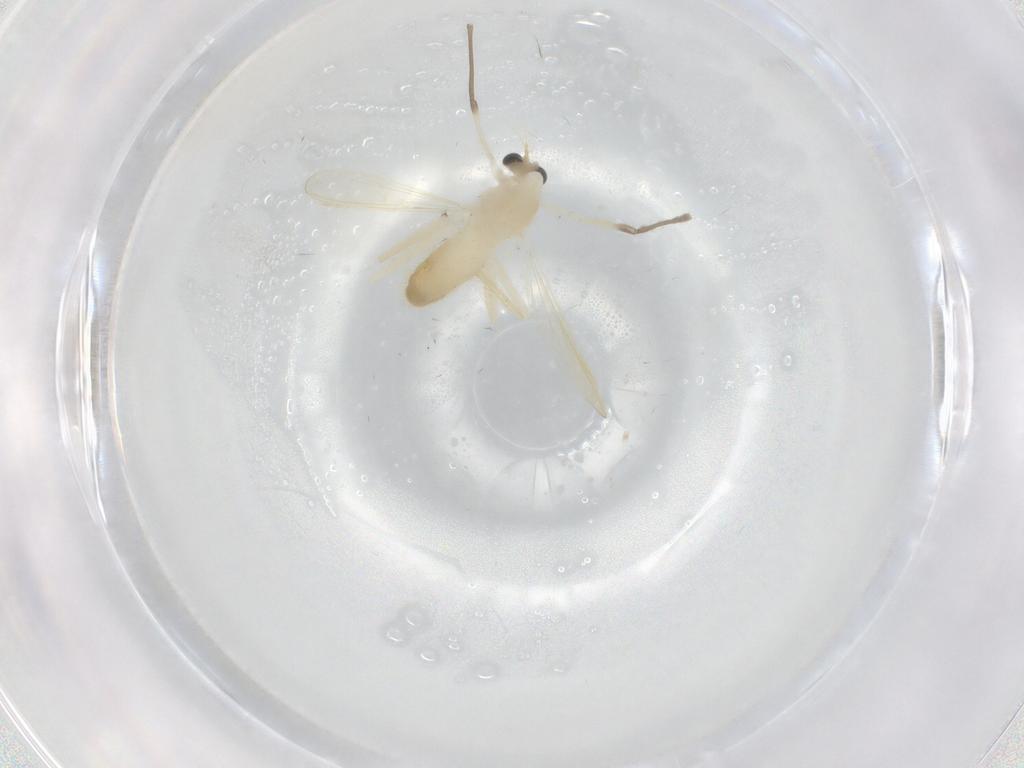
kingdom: Animalia
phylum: Arthropoda
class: Insecta
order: Diptera
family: Chironomidae
